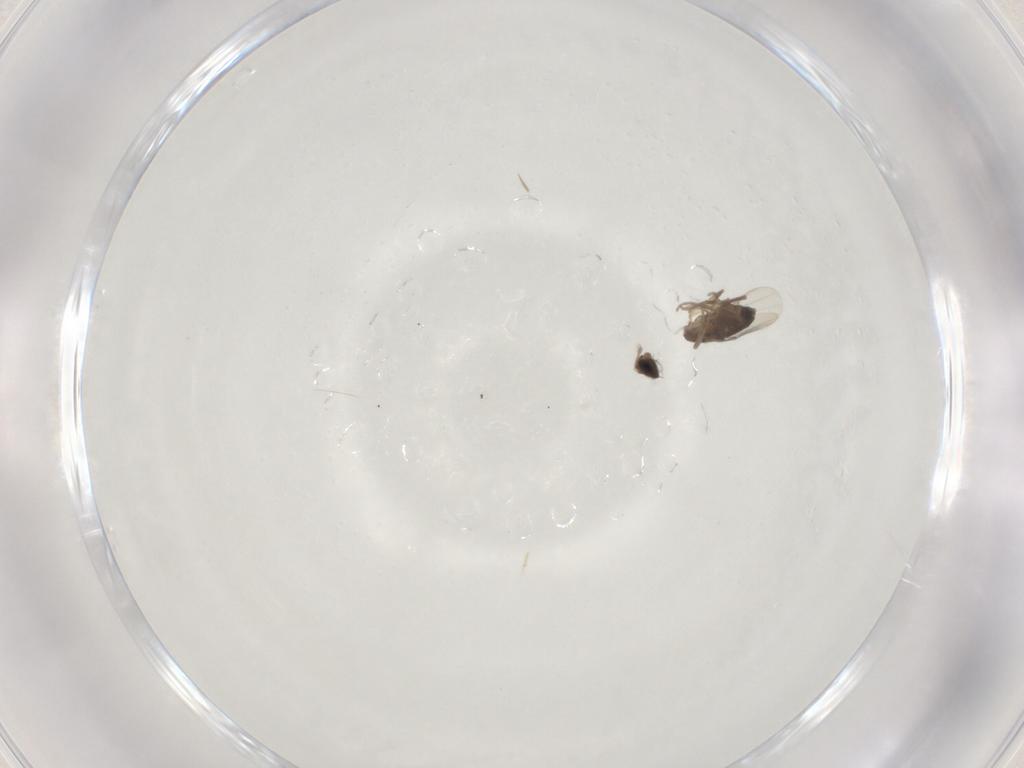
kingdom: Animalia
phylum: Arthropoda
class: Insecta
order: Diptera
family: Phoridae
